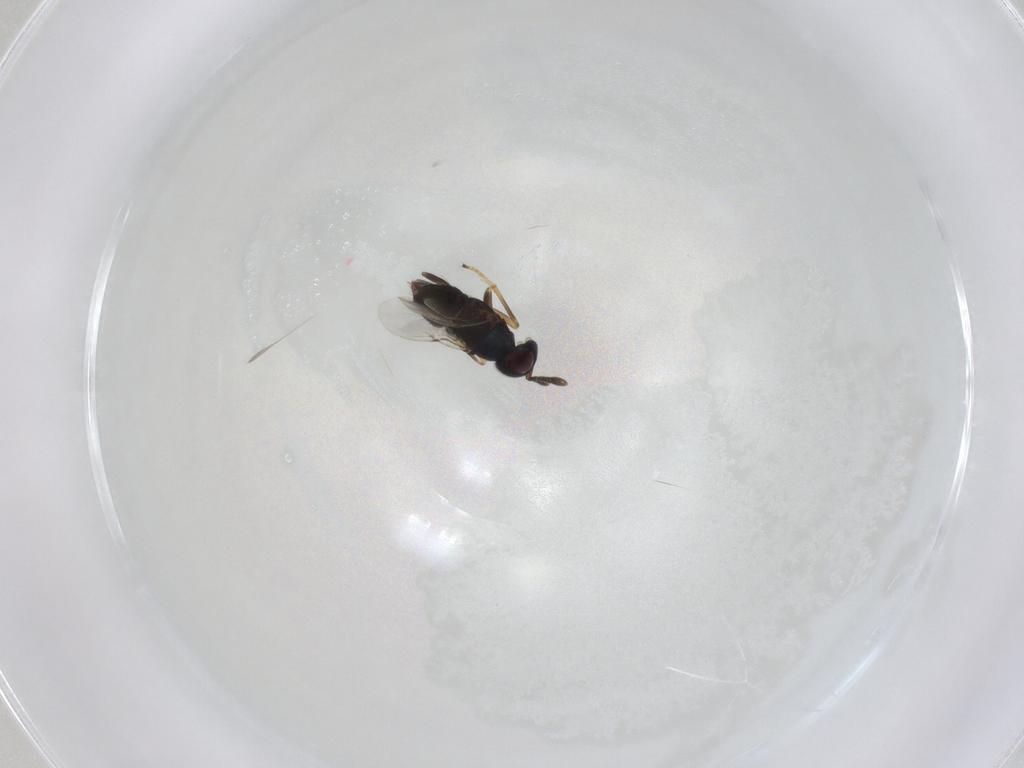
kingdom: Animalia
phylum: Arthropoda
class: Insecta
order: Hymenoptera
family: Encyrtidae
